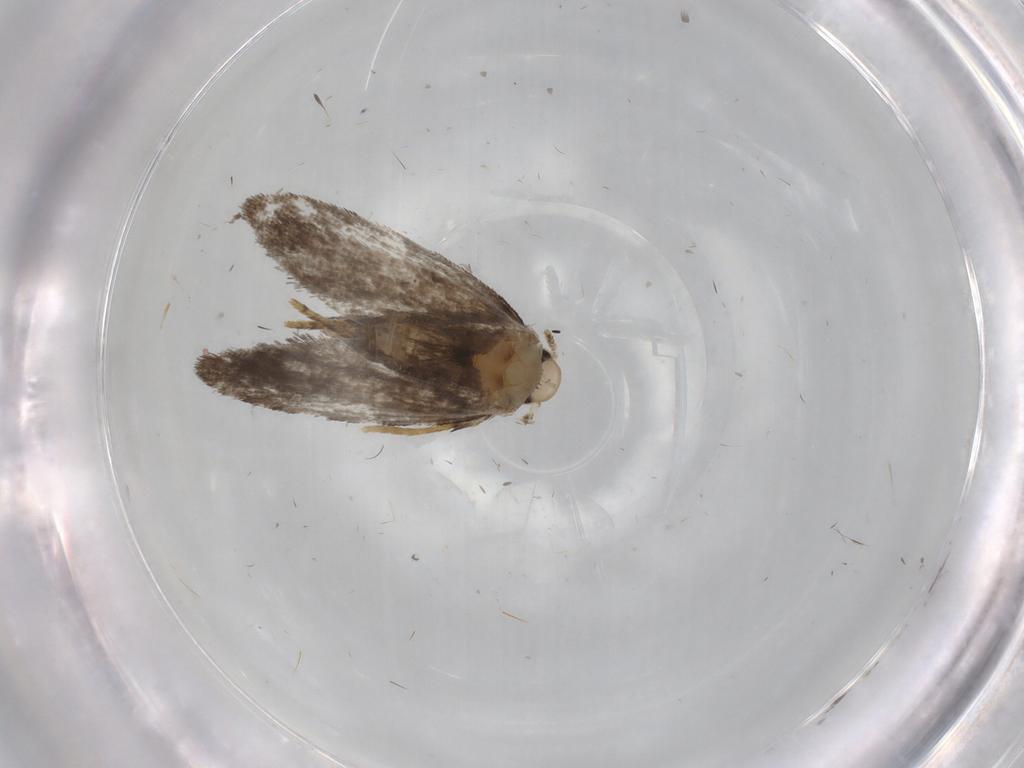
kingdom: Animalia
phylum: Arthropoda
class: Insecta
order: Lepidoptera
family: Psychidae
